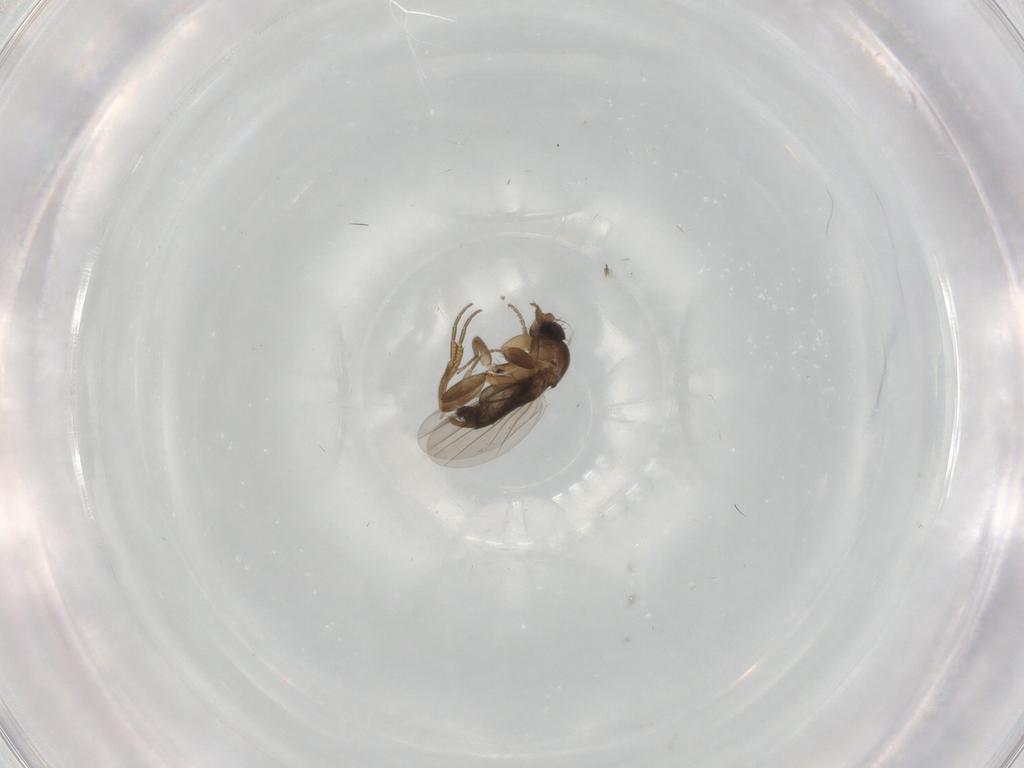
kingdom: Animalia
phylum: Arthropoda
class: Insecta
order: Diptera
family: Phoridae
